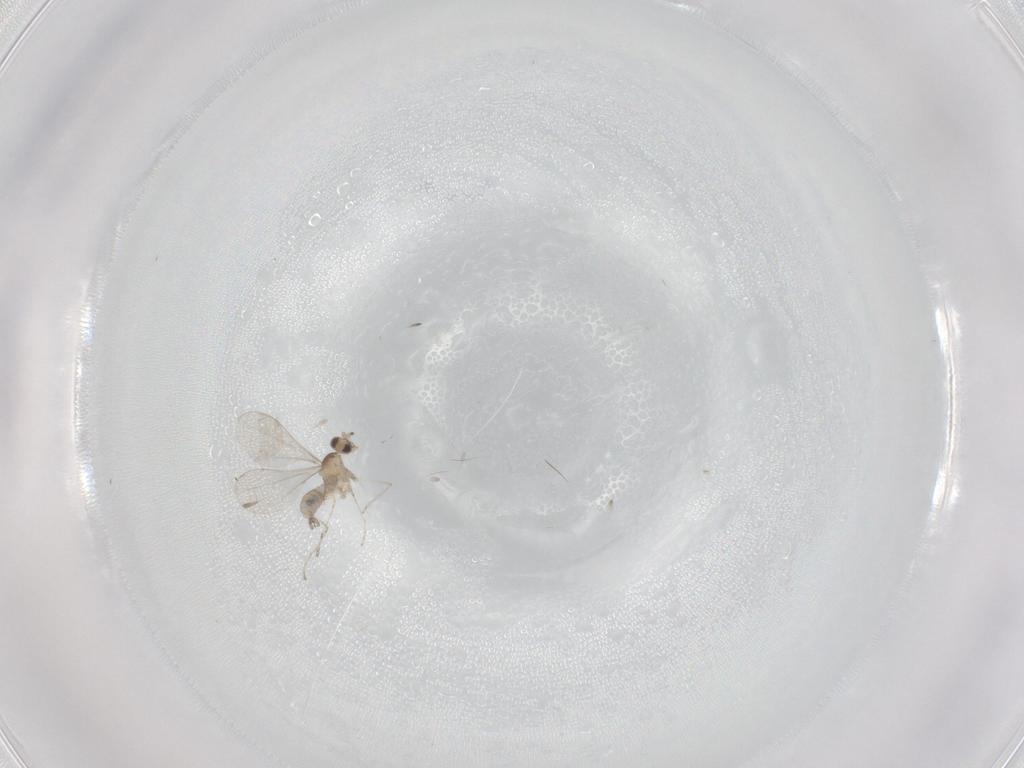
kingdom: Animalia
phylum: Arthropoda
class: Insecta
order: Diptera
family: Cecidomyiidae
